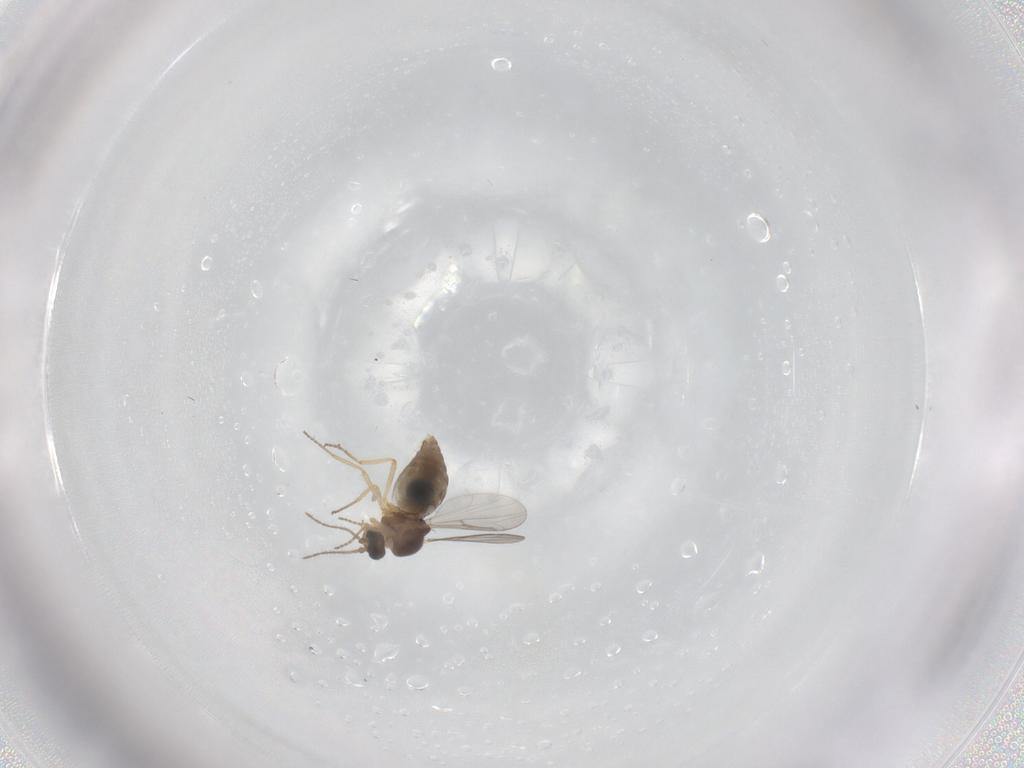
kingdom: Animalia
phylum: Arthropoda
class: Insecta
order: Diptera
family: Ceratopogonidae
